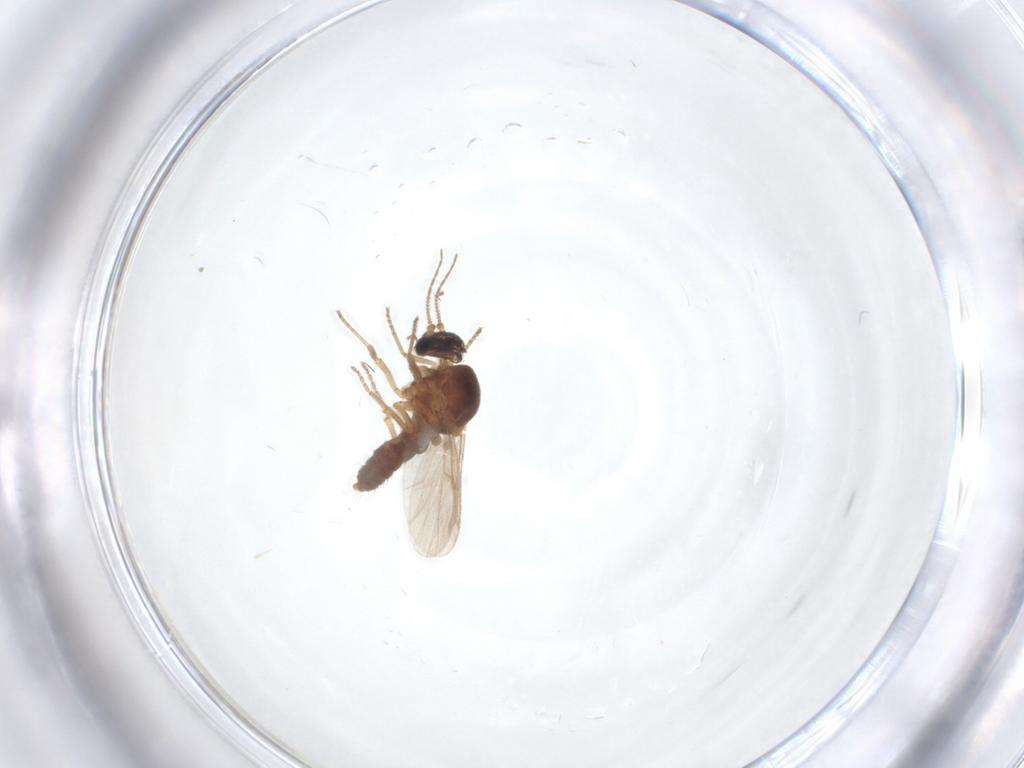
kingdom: Animalia
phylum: Arthropoda
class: Insecta
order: Diptera
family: Ceratopogonidae
